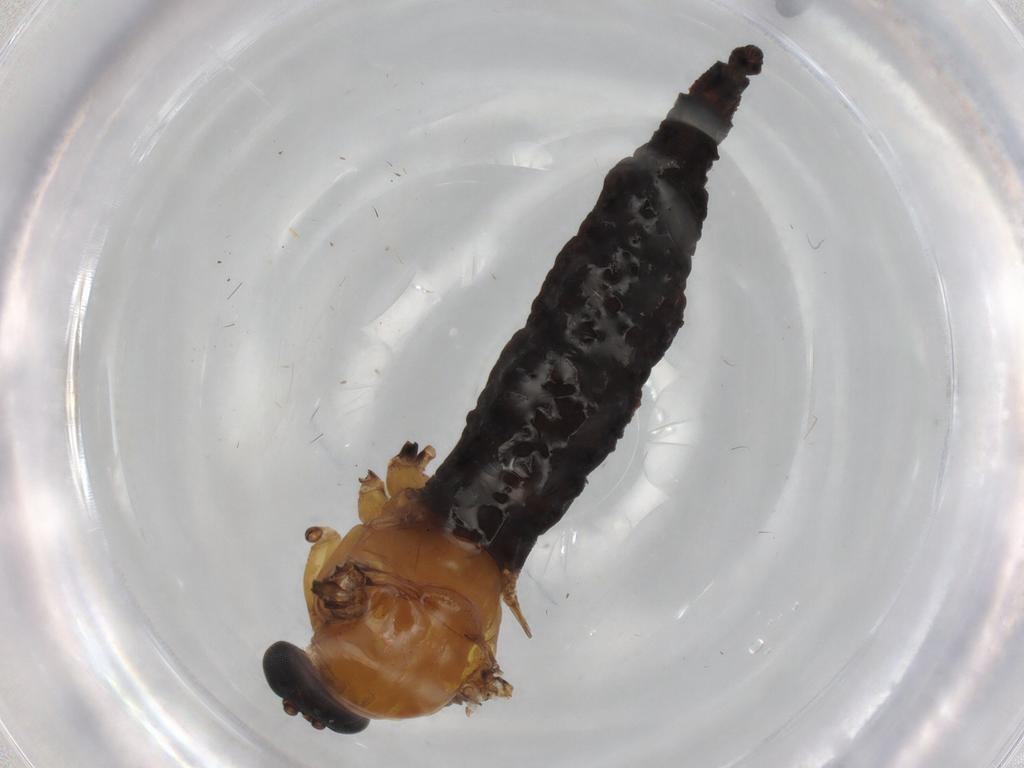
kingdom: Animalia
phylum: Arthropoda
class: Insecta
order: Diptera
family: Sciaridae
